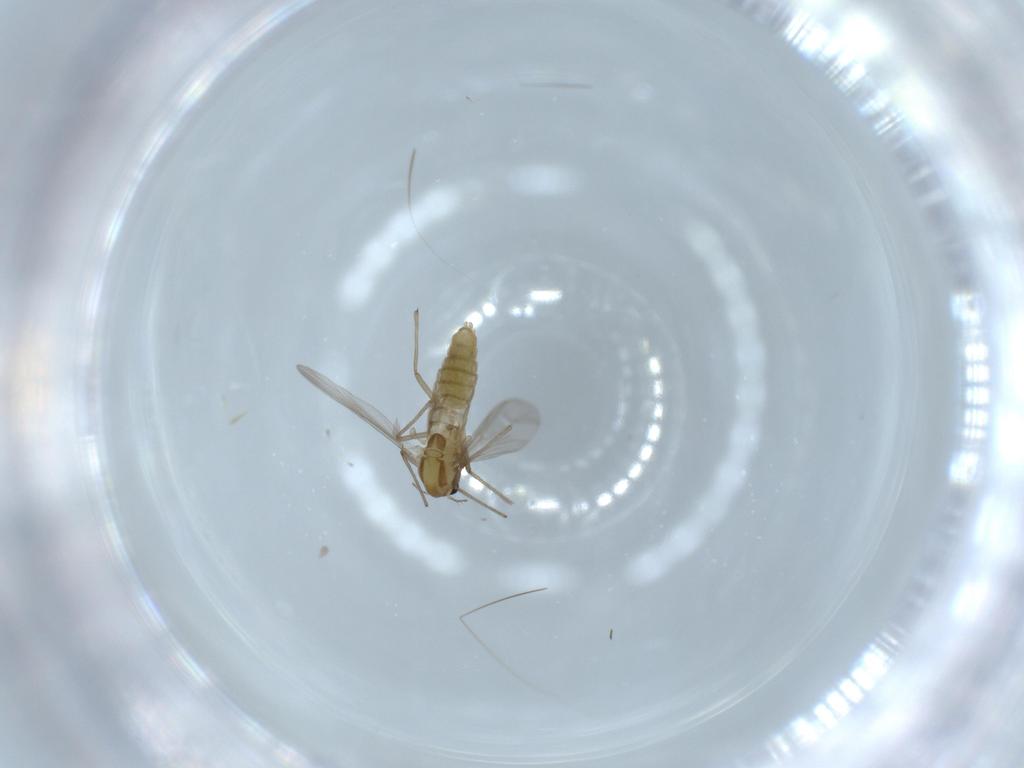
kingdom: Animalia
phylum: Arthropoda
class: Insecta
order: Diptera
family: Chironomidae
